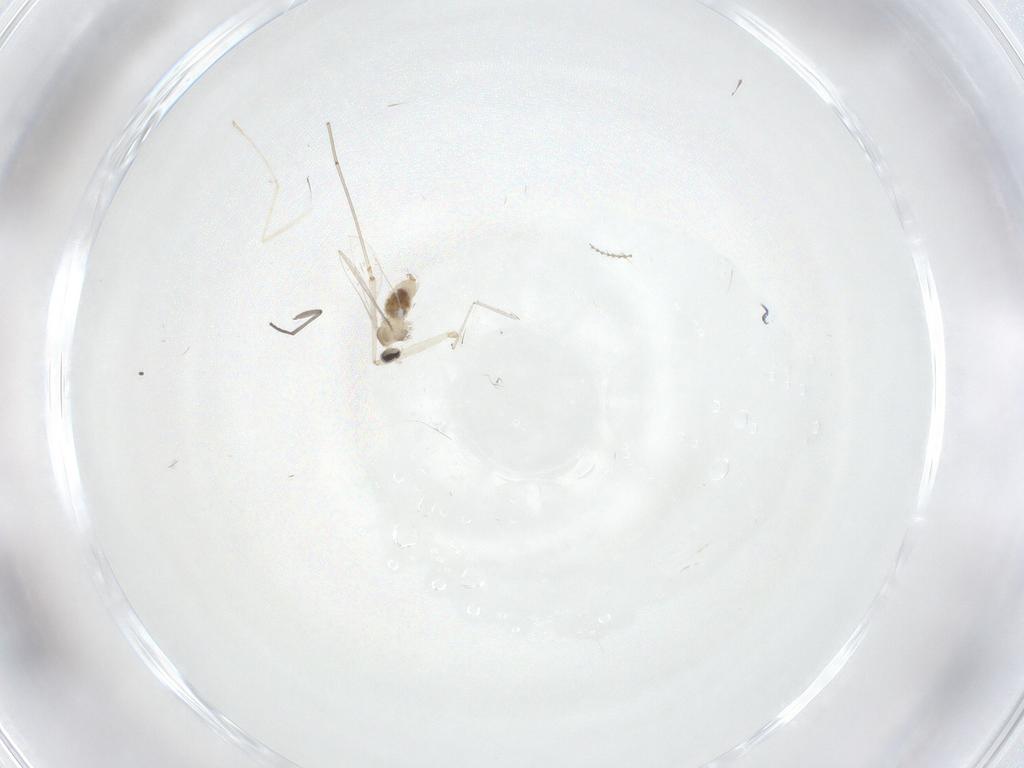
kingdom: Animalia
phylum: Arthropoda
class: Insecta
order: Diptera
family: Cecidomyiidae
